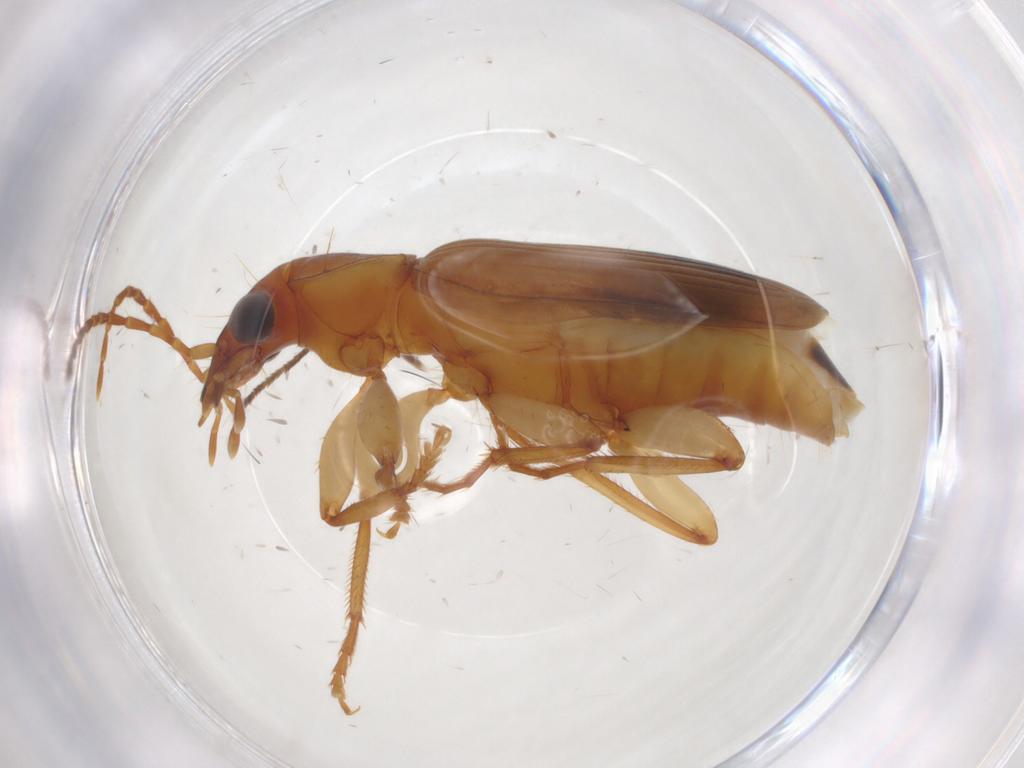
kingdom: Animalia
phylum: Arthropoda
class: Insecta
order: Coleoptera
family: Carabidae
